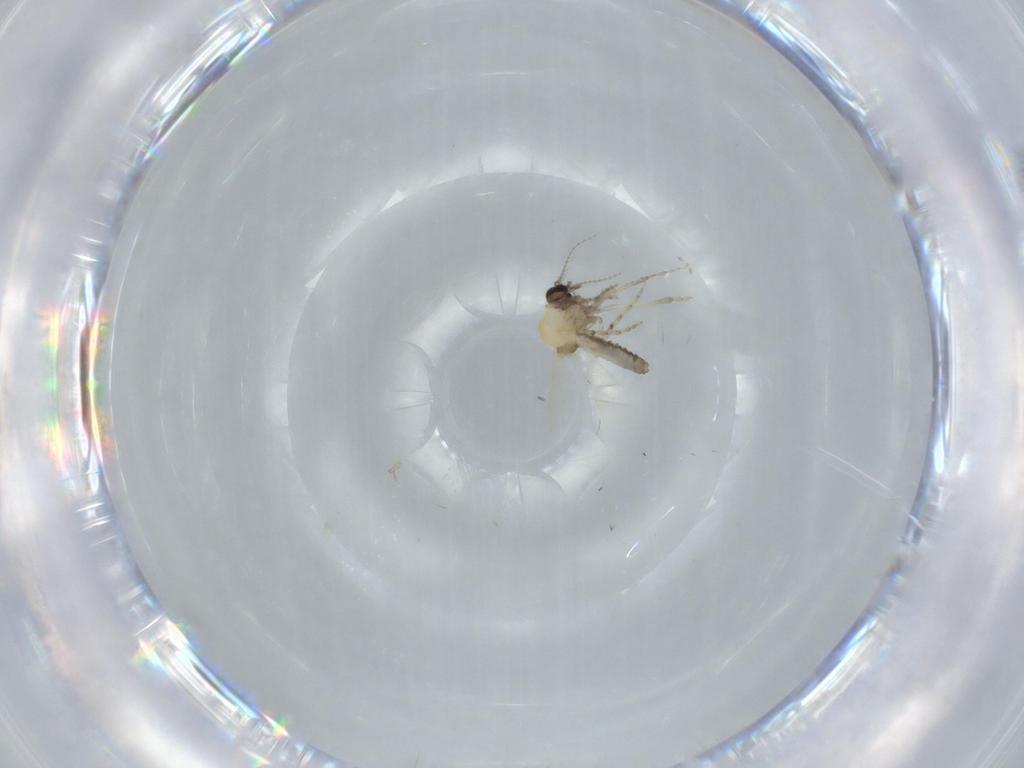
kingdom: Animalia
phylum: Arthropoda
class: Insecta
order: Diptera
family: Ceratopogonidae
